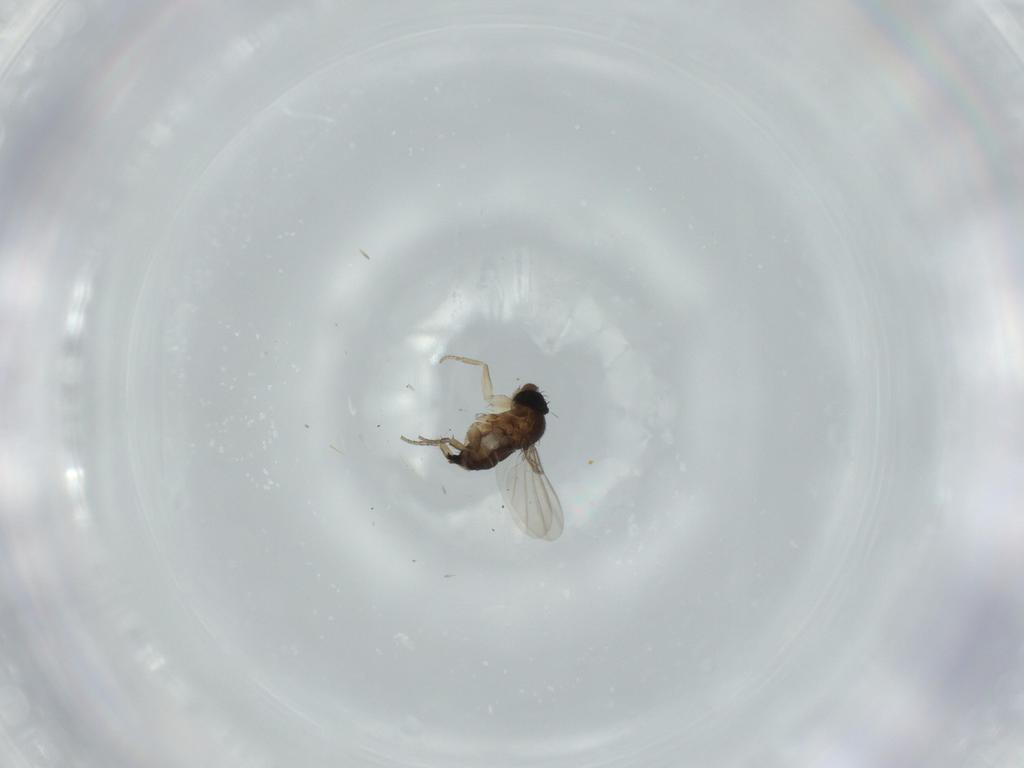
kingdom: Animalia
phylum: Arthropoda
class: Insecta
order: Diptera
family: Phoridae
